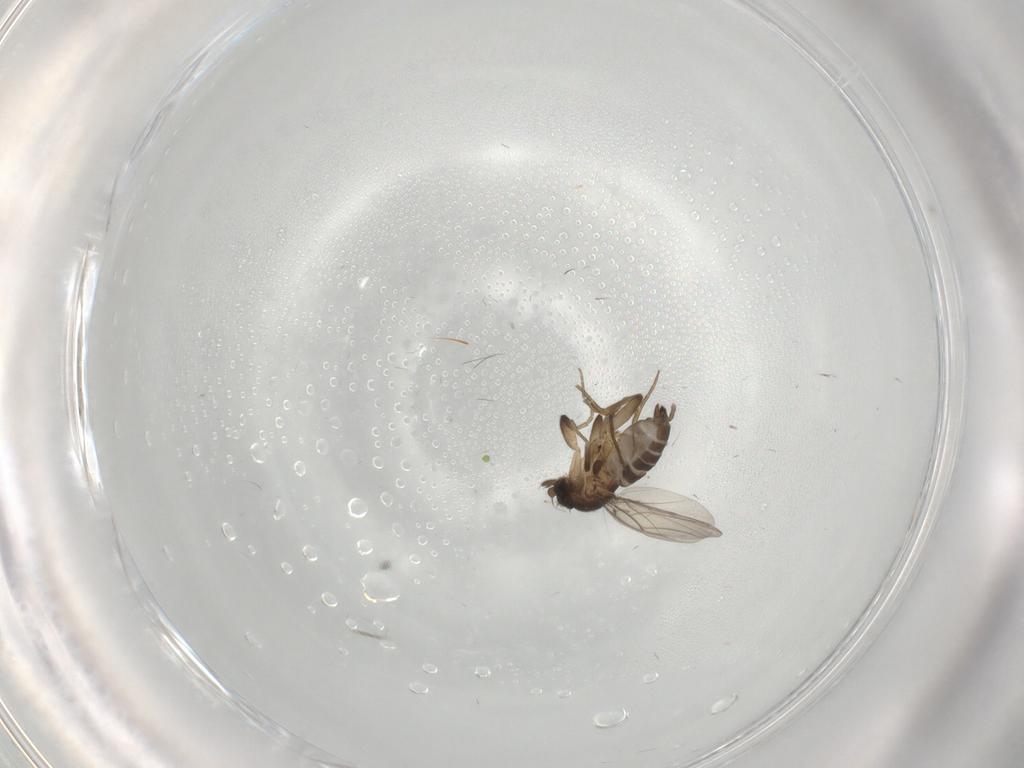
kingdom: Animalia
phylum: Arthropoda
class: Insecta
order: Diptera
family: Phoridae
